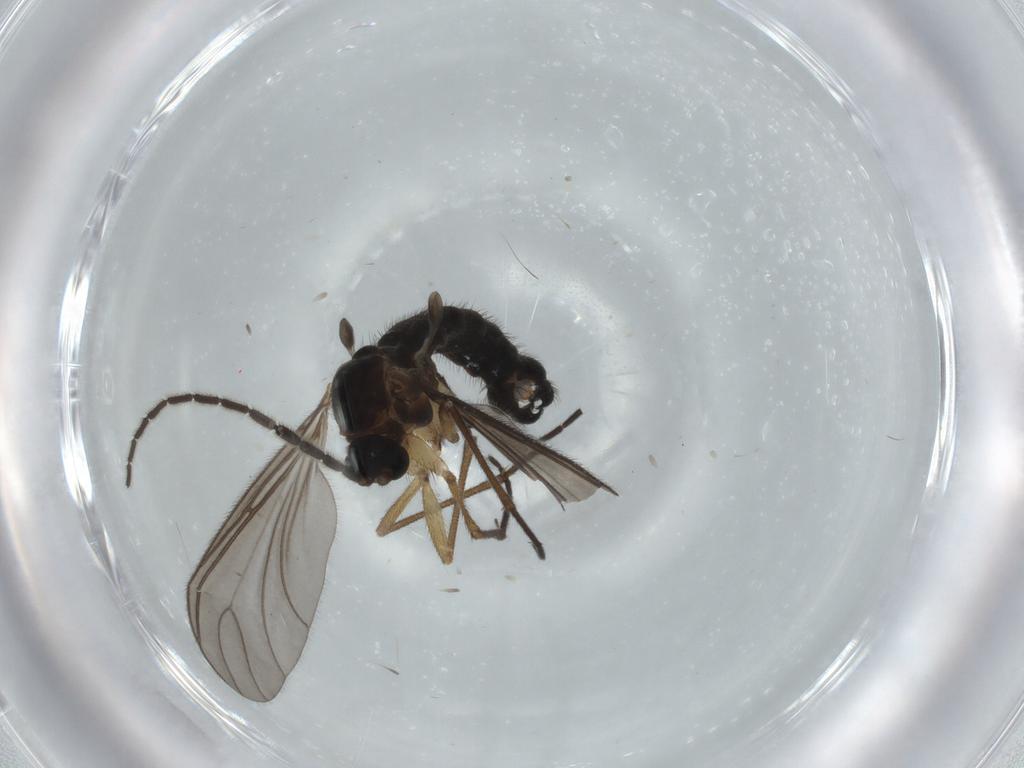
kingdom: Animalia
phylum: Arthropoda
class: Insecta
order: Diptera
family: Sciaridae
